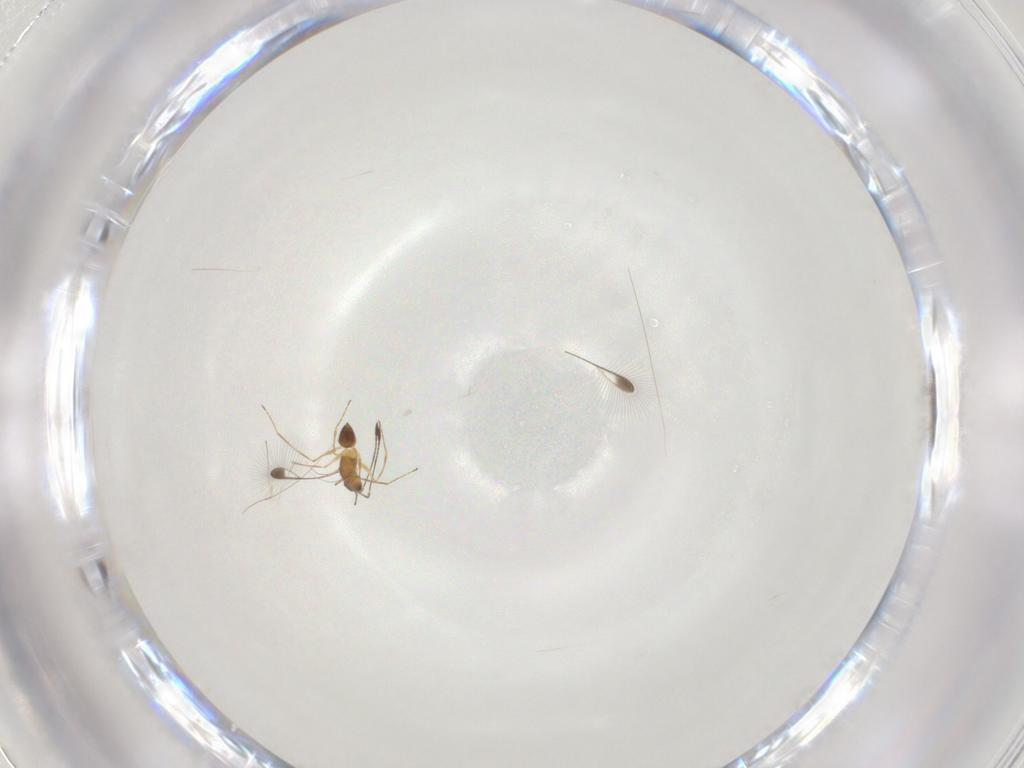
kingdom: Animalia
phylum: Arthropoda
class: Insecta
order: Hymenoptera
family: Mymaridae
